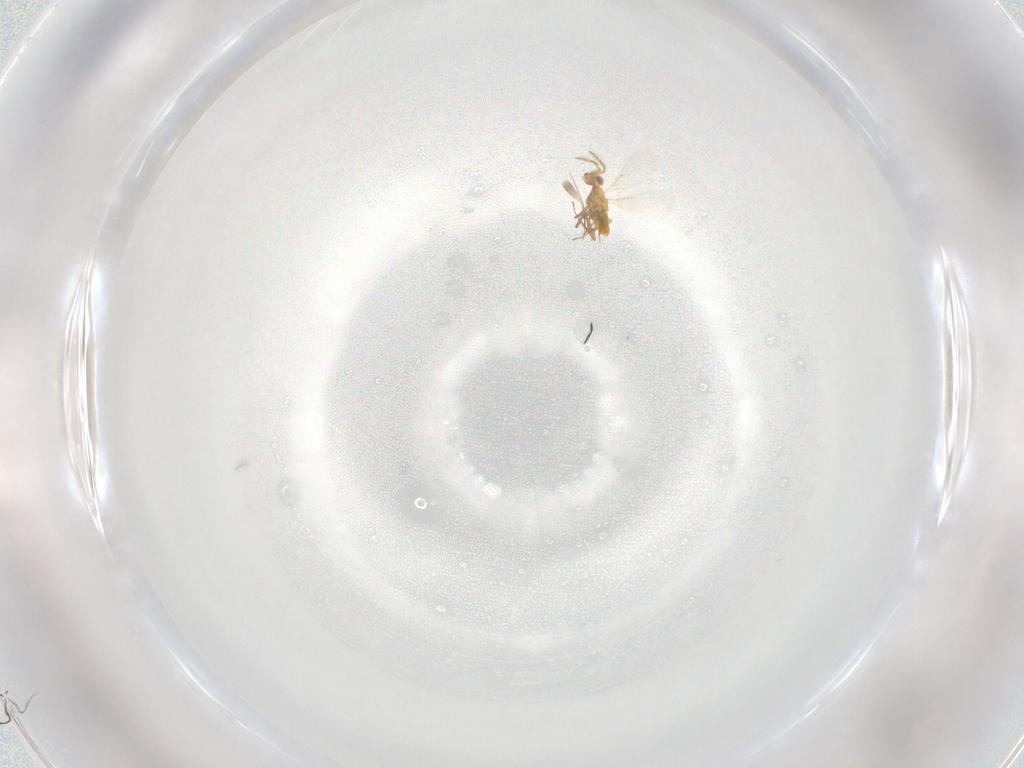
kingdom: Animalia
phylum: Arthropoda
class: Insecta
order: Hymenoptera
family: Aphelinidae
